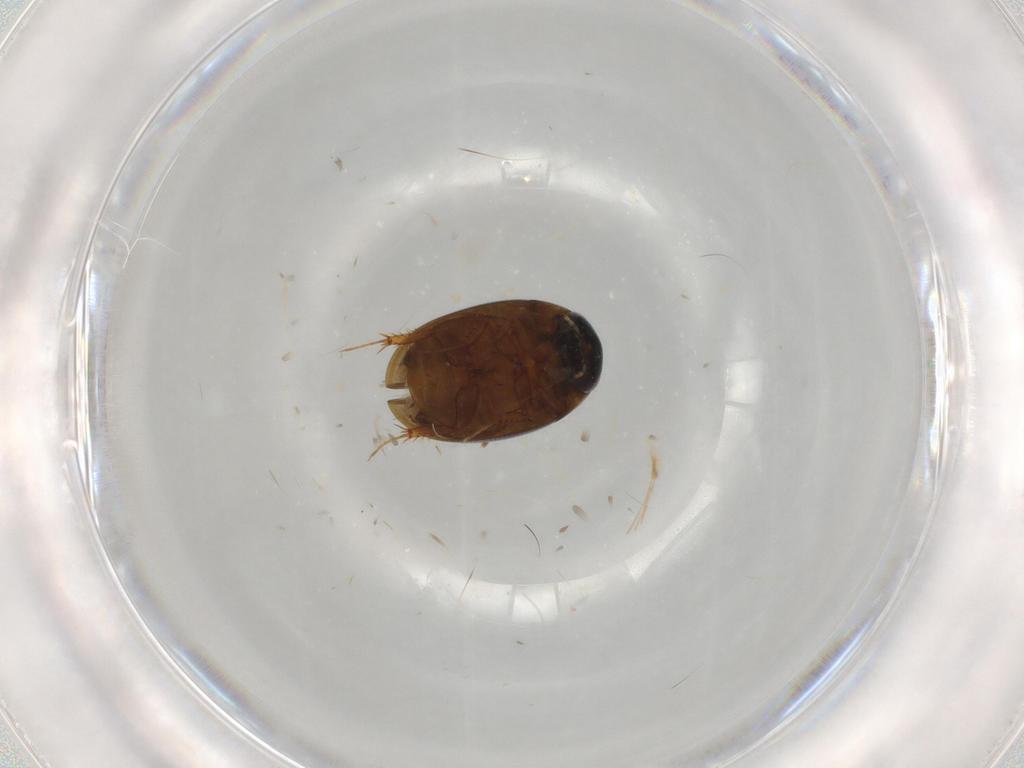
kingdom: Animalia
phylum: Arthropoda
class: Insecta
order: Coleoptera
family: Hydrophilidae
